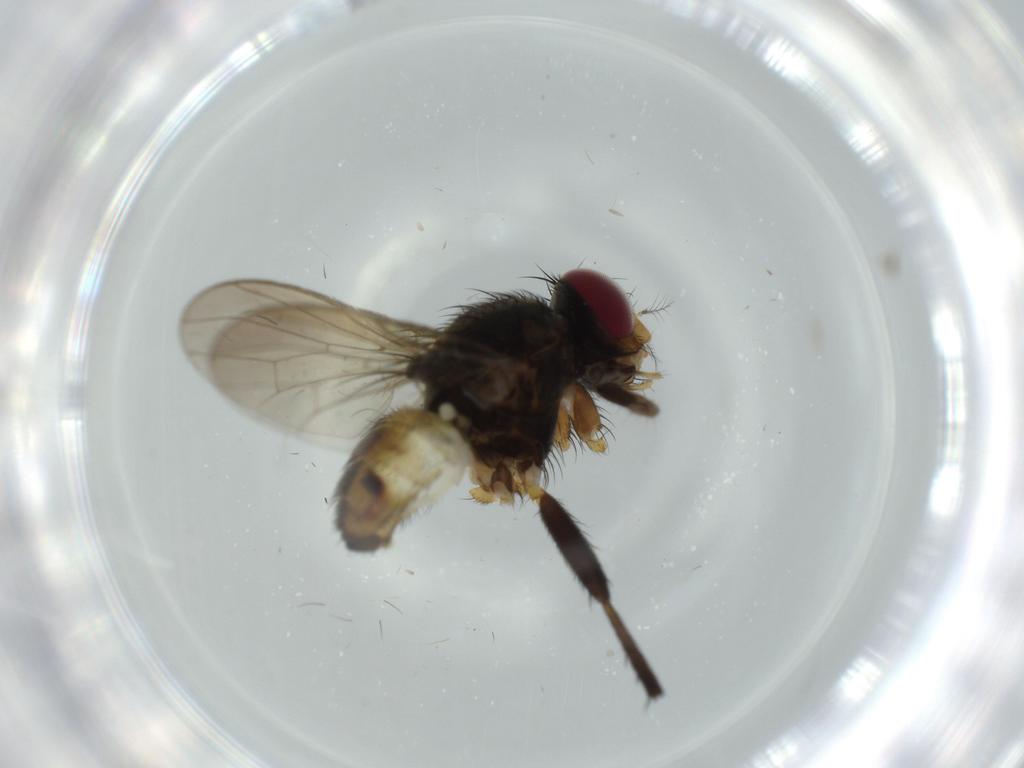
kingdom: Animalia
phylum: Arthropoda
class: Insecta
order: Diptera
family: Anthomyiidae
